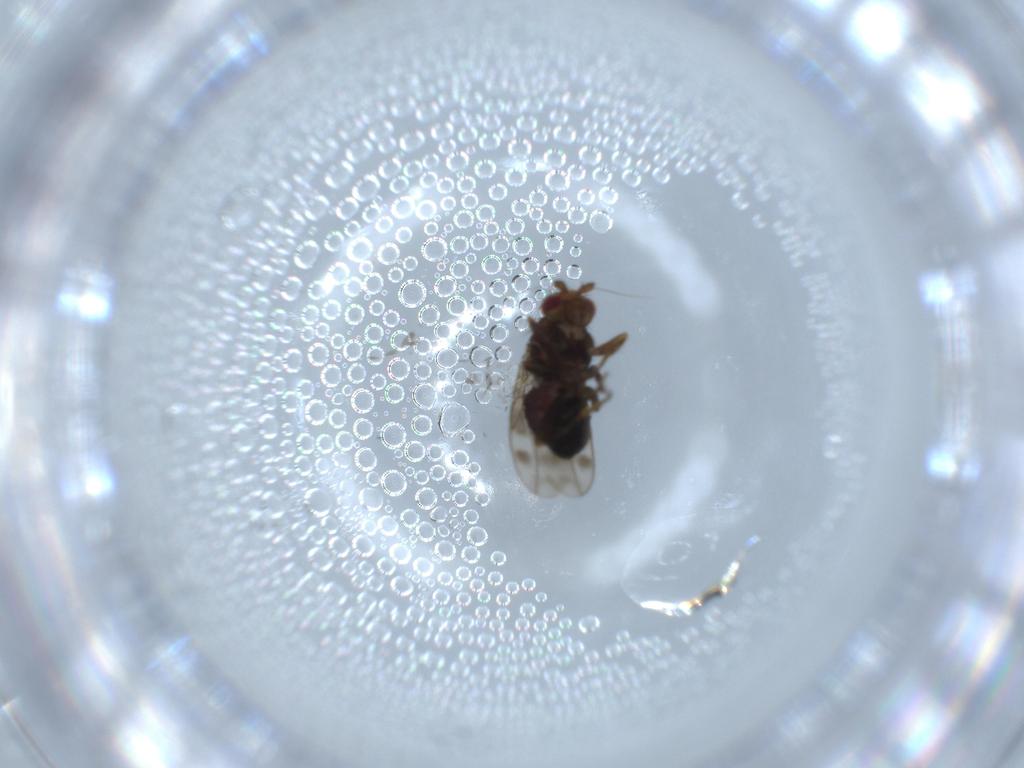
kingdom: Animalia
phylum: Arthropoda
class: Insecta
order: Diptera
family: Sphaeroceridae
